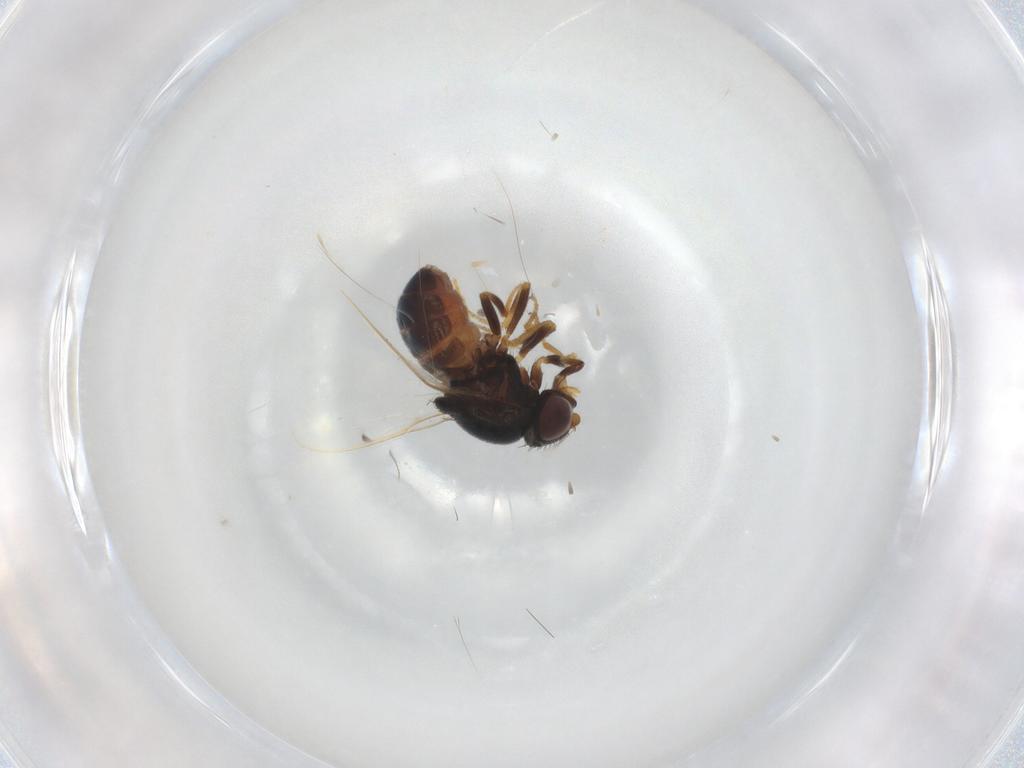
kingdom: Animalia
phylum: Arthropoda
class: Insecta
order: Diptera
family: Chloropidae
